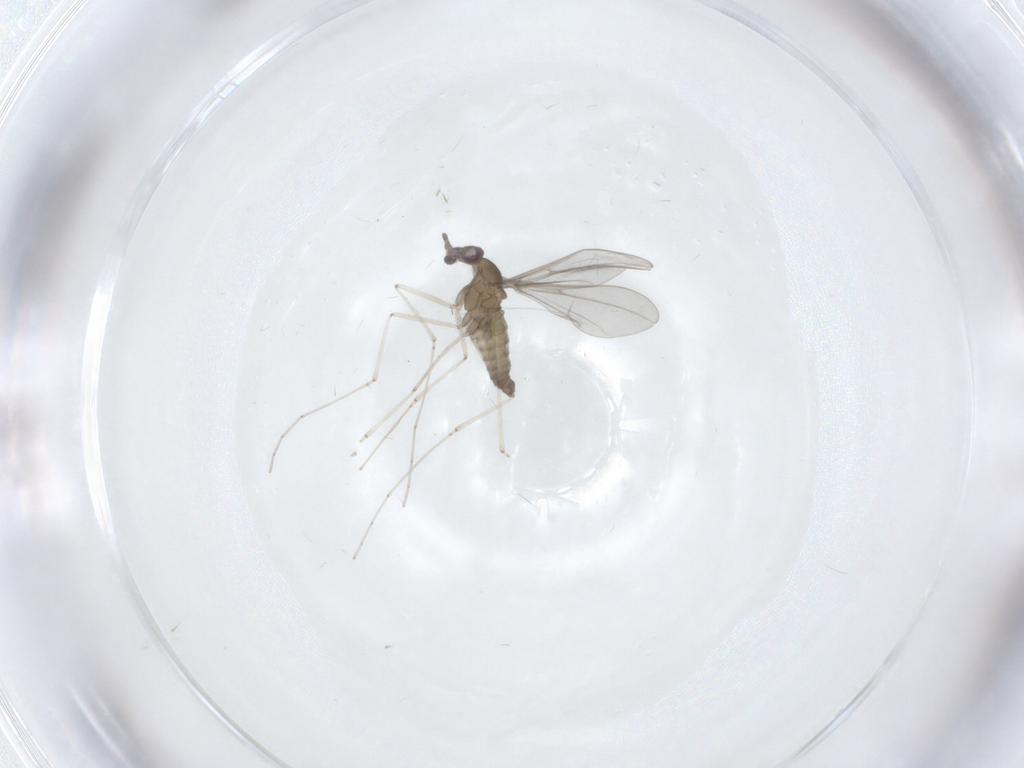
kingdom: Animalia
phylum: Arthropoda
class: Insecta
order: Diptera
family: Cecidomyiidae
